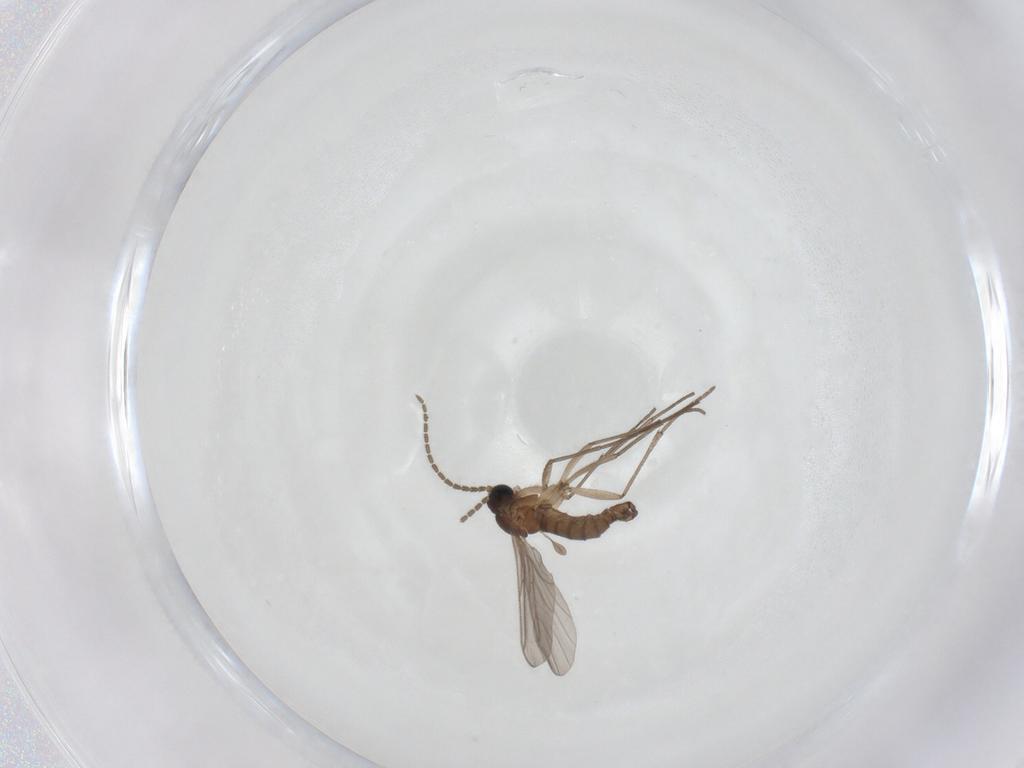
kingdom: Animalia
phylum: Arthropoda
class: Insecta
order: Diptera
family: Sciaridae
